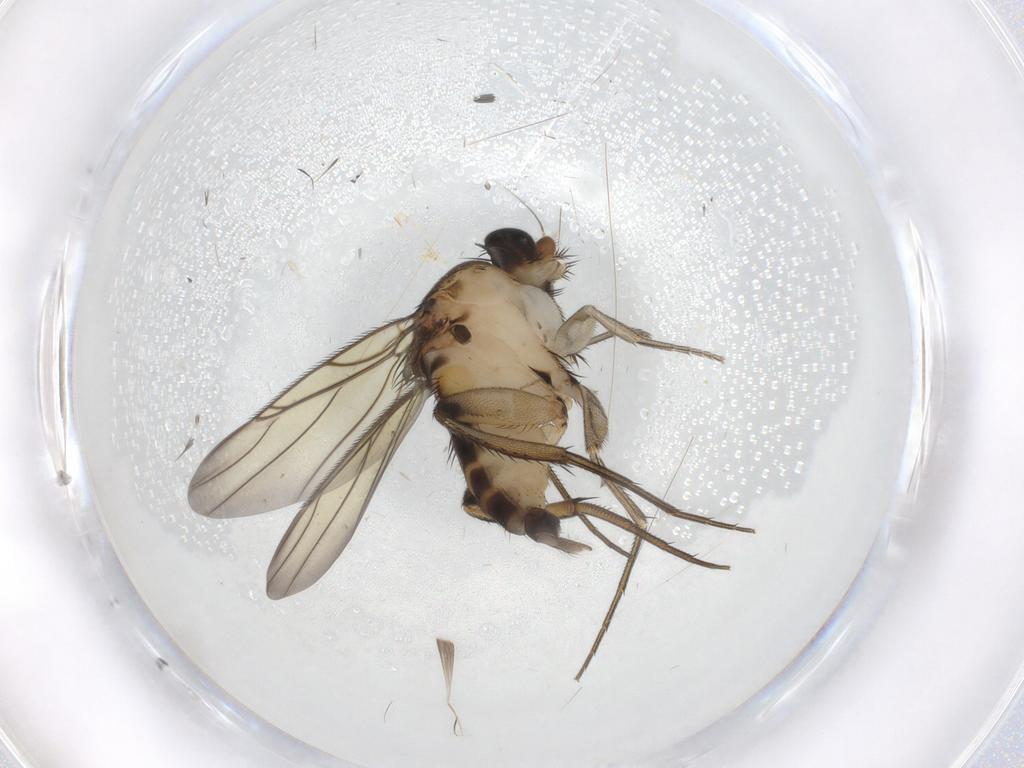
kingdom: Animalia
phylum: Arthropoda
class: Insecta
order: Diptera
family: Phoridae
